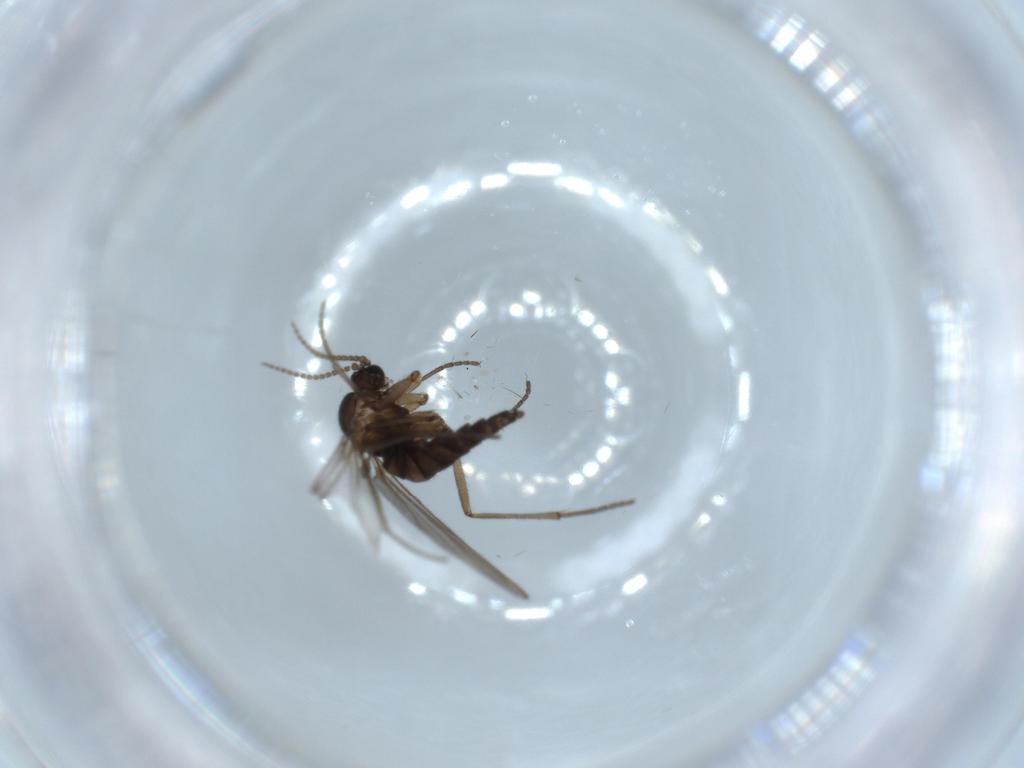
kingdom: Animalia
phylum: Arthropoda
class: Insecta
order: Diptera
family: Sciaridae
